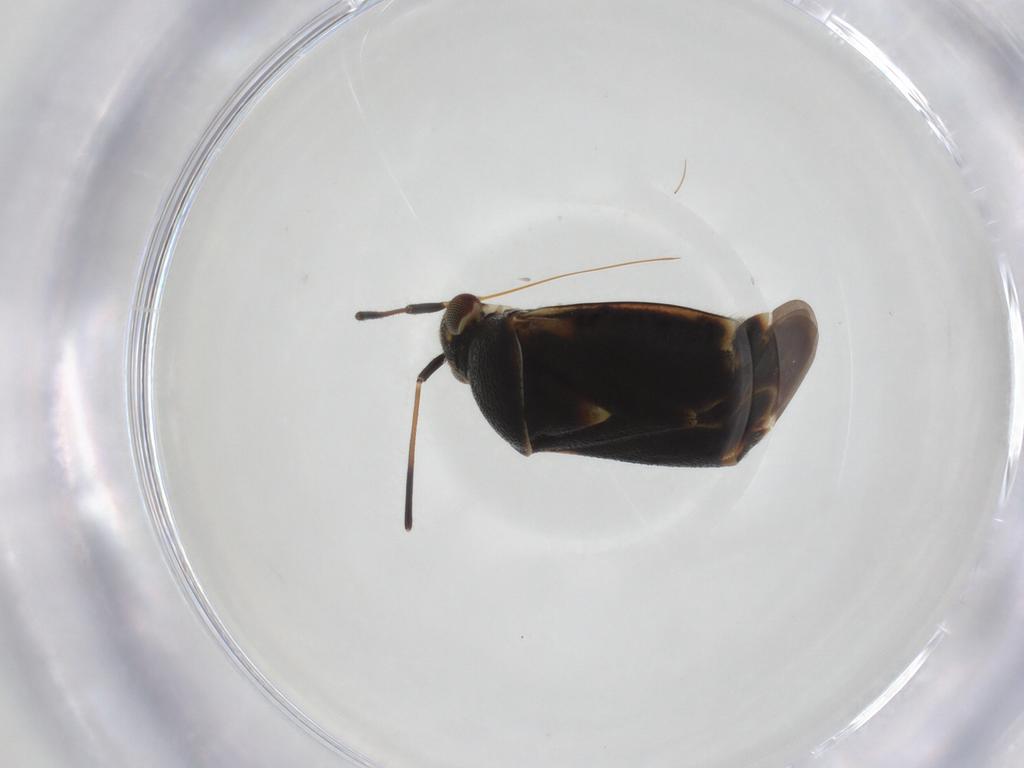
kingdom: Animalia
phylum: Arthropoda
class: Insecta
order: Hemiptera
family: Miridae
